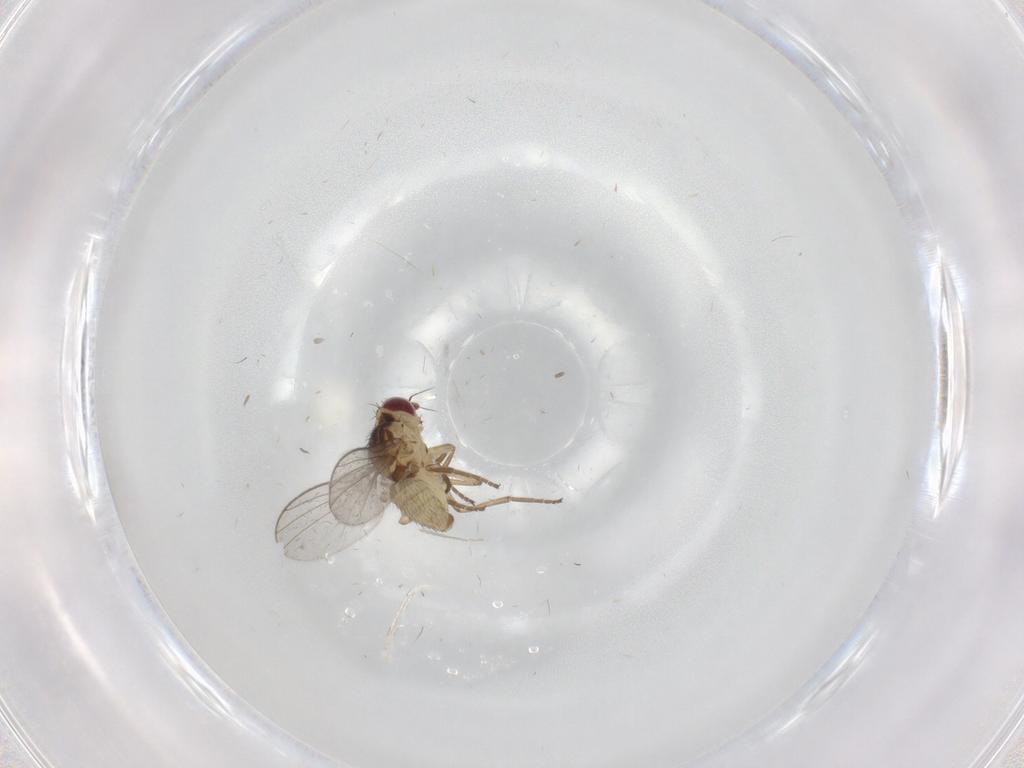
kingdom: Animalia
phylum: Arthropoda
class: Insecta
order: Diptera
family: Agromyzidae
